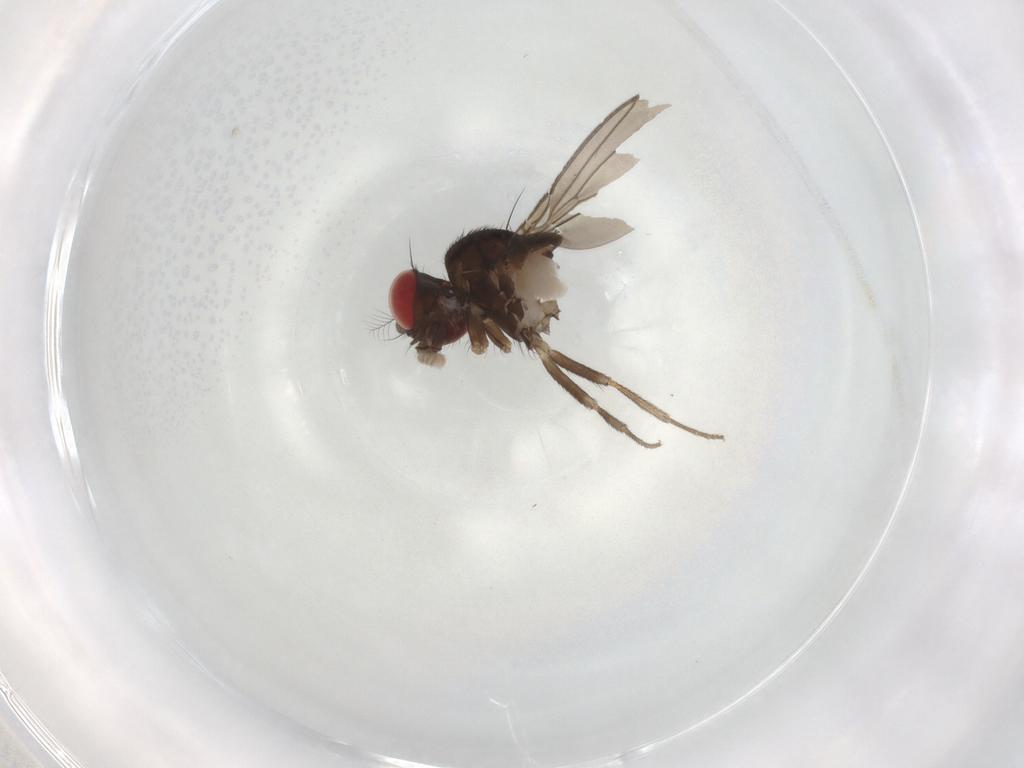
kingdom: Animalia
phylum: Arthropoda
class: Insecta
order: Diptera
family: Drosophilidae
